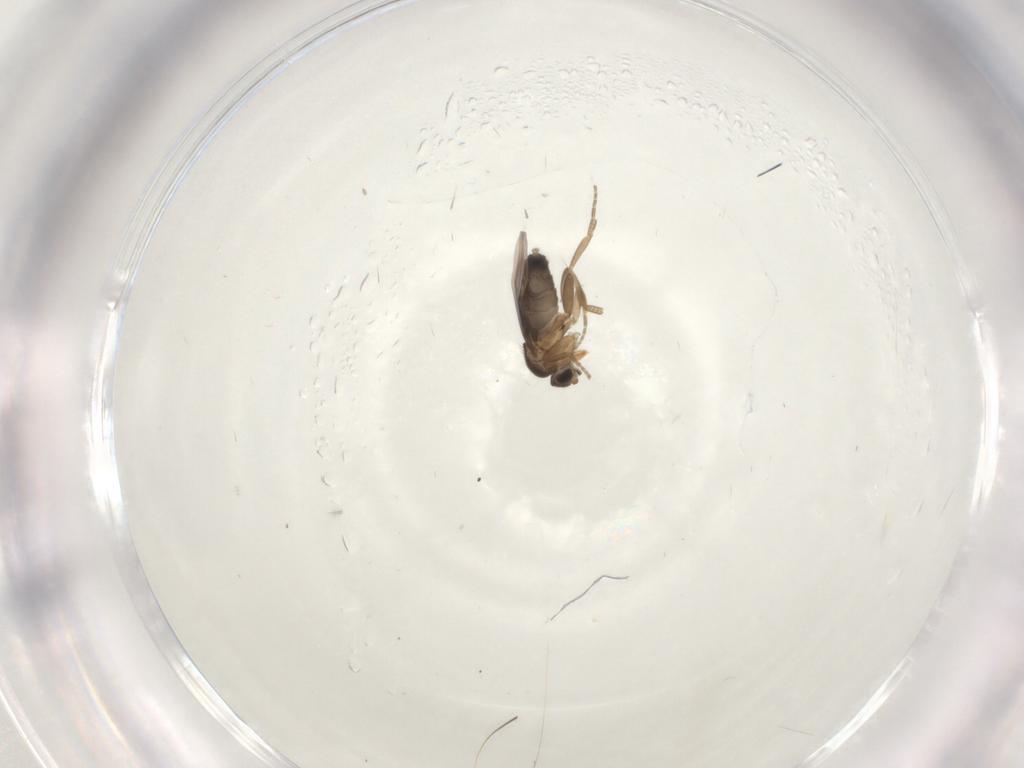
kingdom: Animalia
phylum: Arthropoda
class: Insecta
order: Diptera
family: Phoridae
